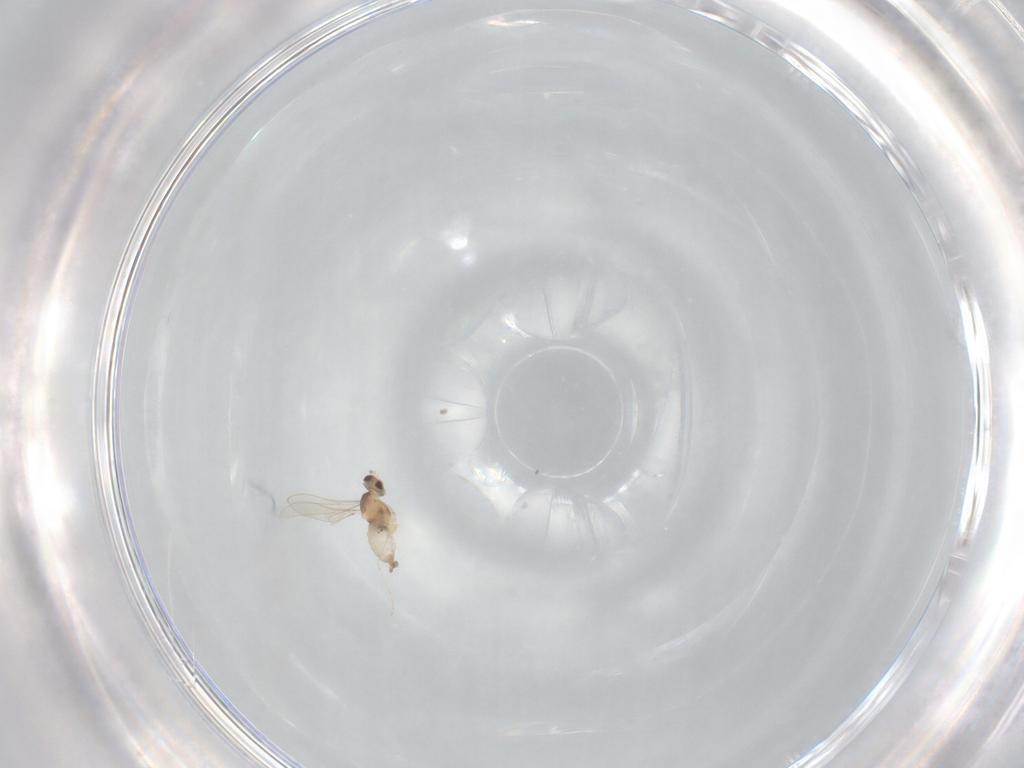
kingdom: Animalia
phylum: Arthropoda
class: Insecta
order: Diptera
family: Cecidomyiidae
